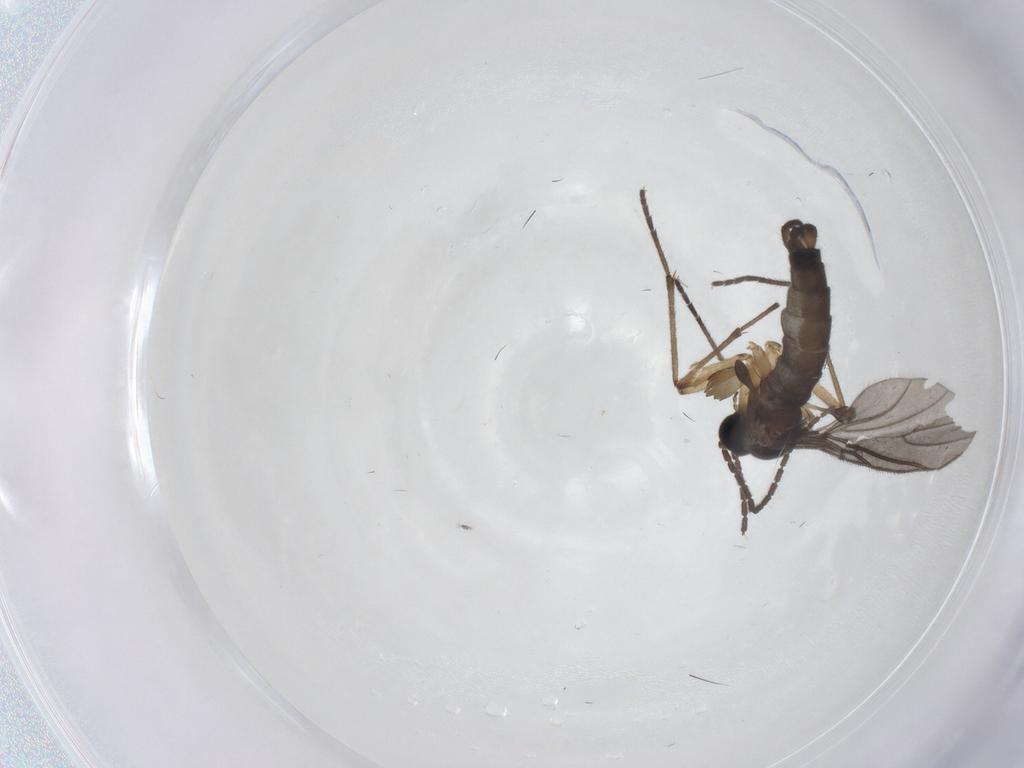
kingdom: Animalia
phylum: Arthropoda
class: Insecta
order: Diptera
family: Sciaridae
